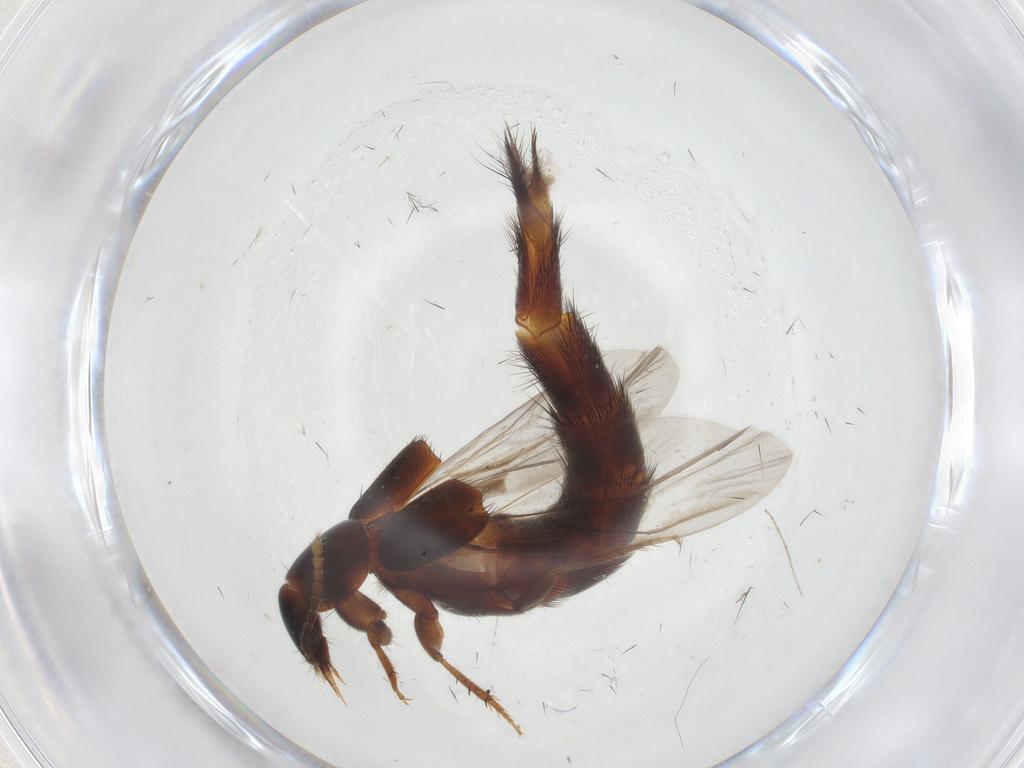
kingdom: Animalia
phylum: Arthropoda
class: Insecta
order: Coleoptera
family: Staphylinidae
